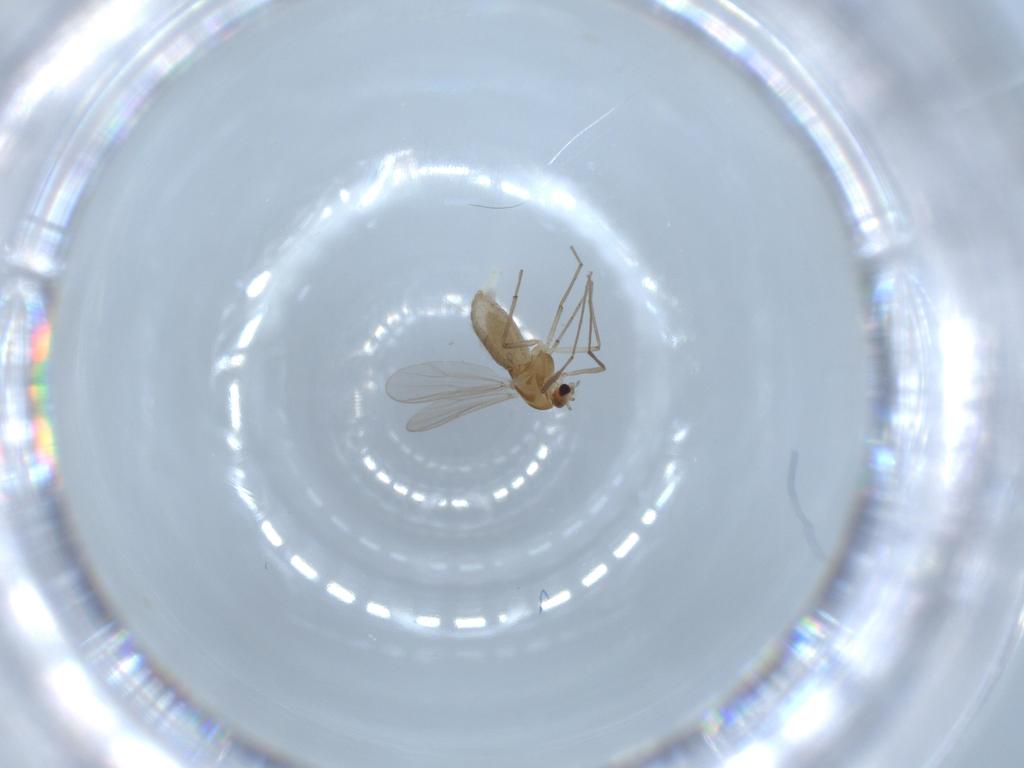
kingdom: Animalia
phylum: Arthropoda
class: Insecta
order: Diptera
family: Chironomidae
